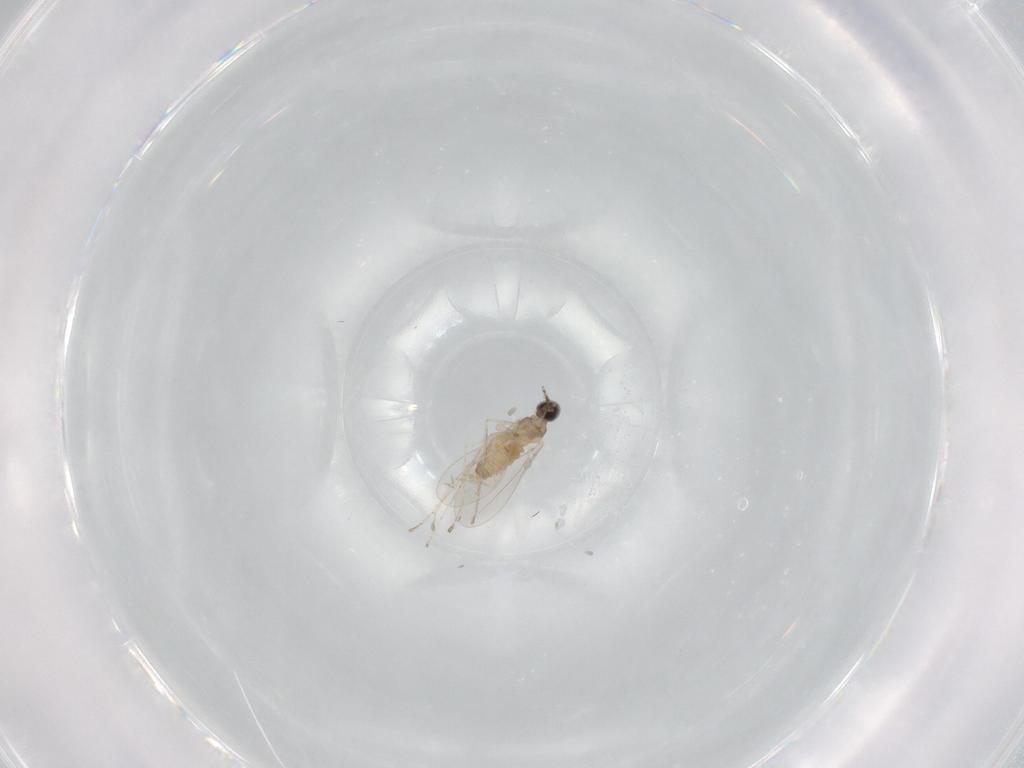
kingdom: Animalia
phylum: Arthropoda
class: Insecta
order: Diptera
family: Cecidomyiidae
